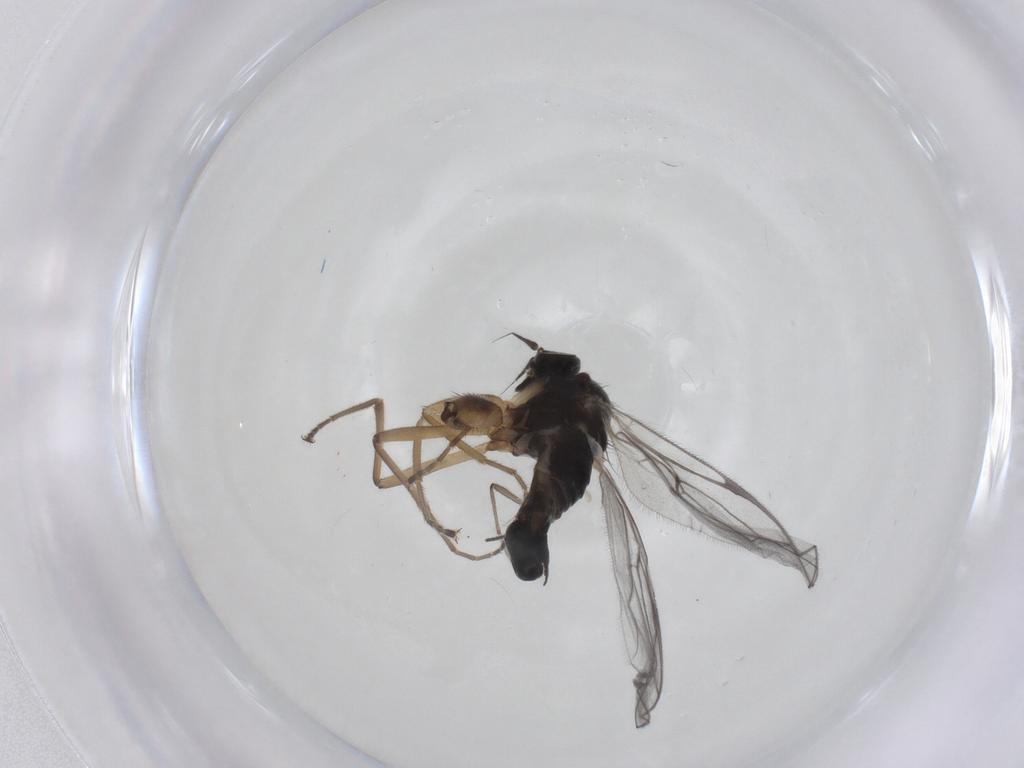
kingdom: Animalia
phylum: Arthropoda
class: Insecta
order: Diptera
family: Hybotidae
